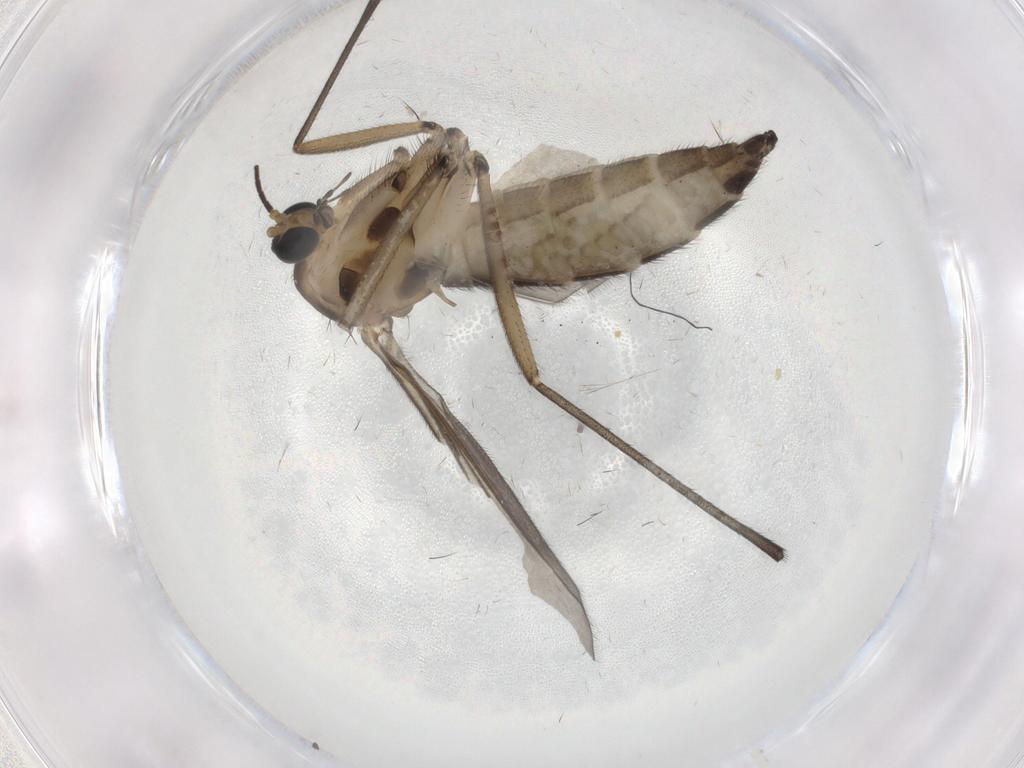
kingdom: Animalia
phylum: Arthropoda
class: Insecta
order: Diptera
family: Sciaridae
